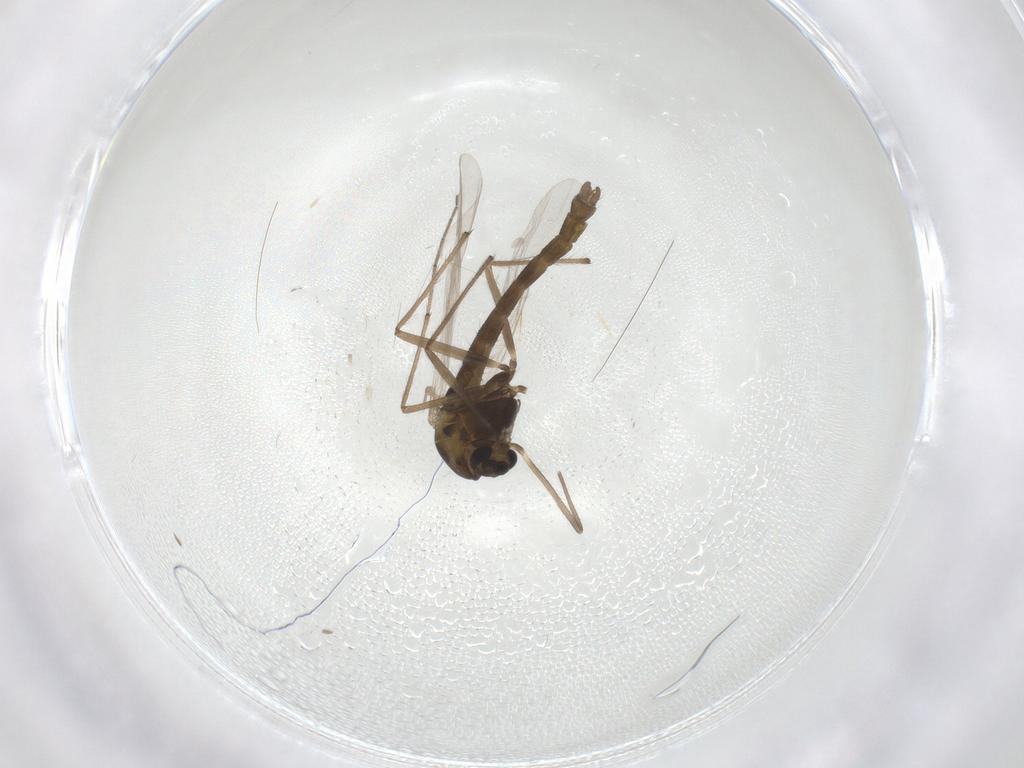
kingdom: Animalia
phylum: Arthropoda
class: Insecta
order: Diptera
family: Chironomidae
